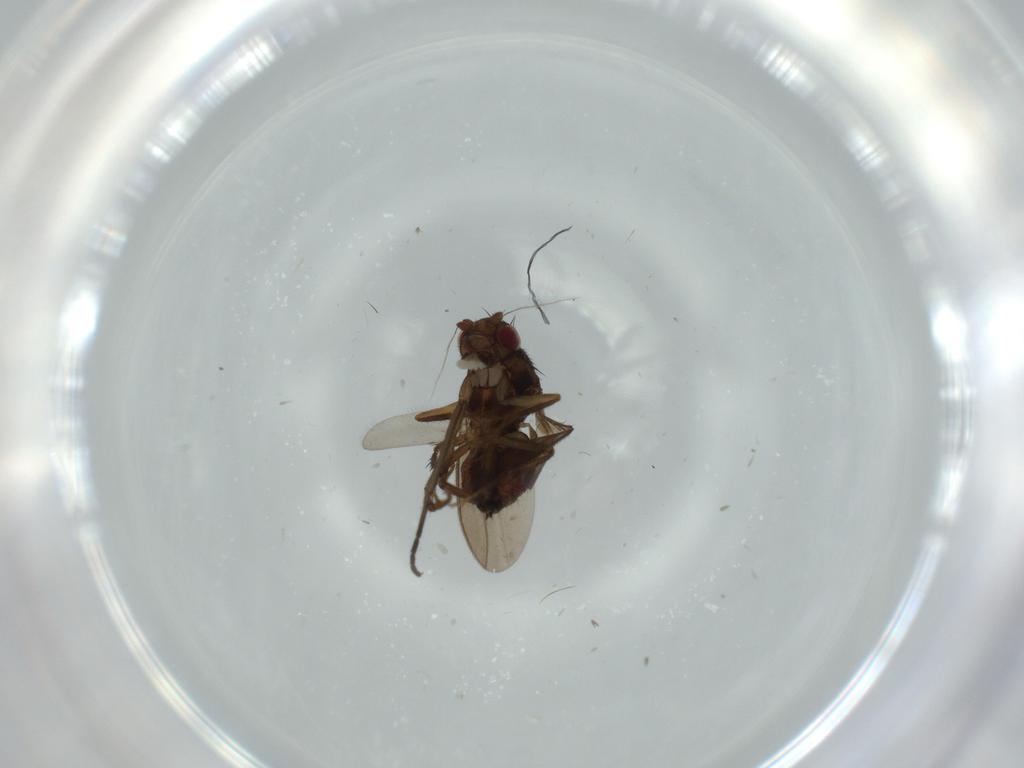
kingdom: Animalia
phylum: Arthropoda
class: Insecta
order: Diptera
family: Sciaridae
